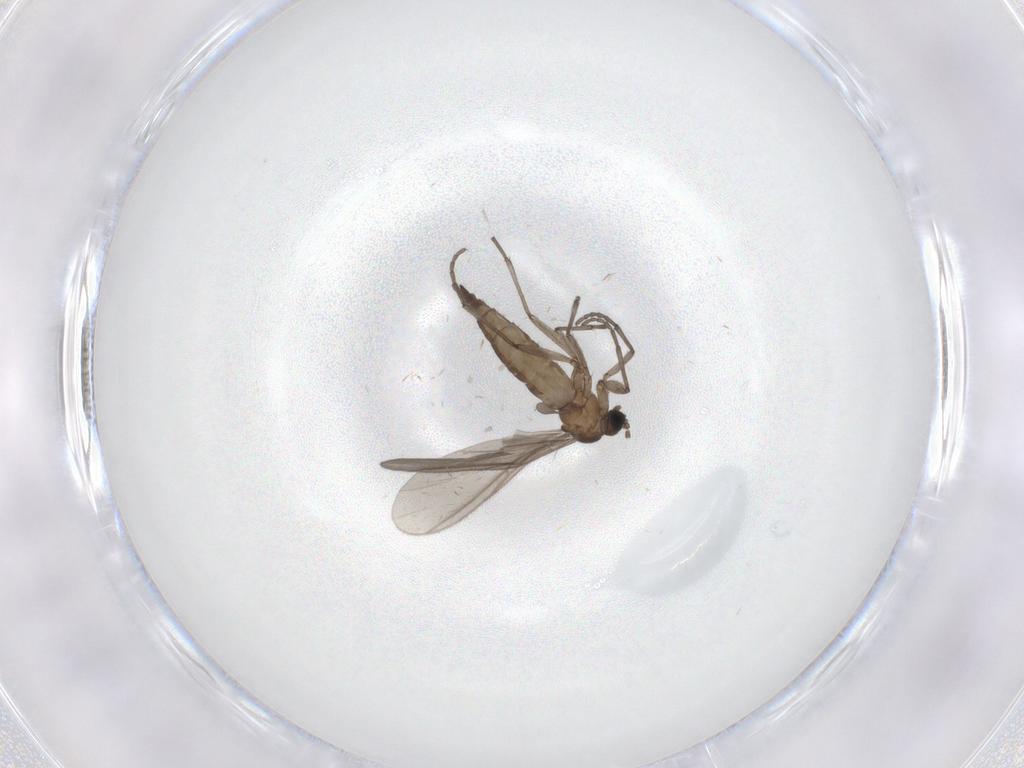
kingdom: Animalia
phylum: Arthropoda
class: Insecta
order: Diptera
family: Sciaridae
